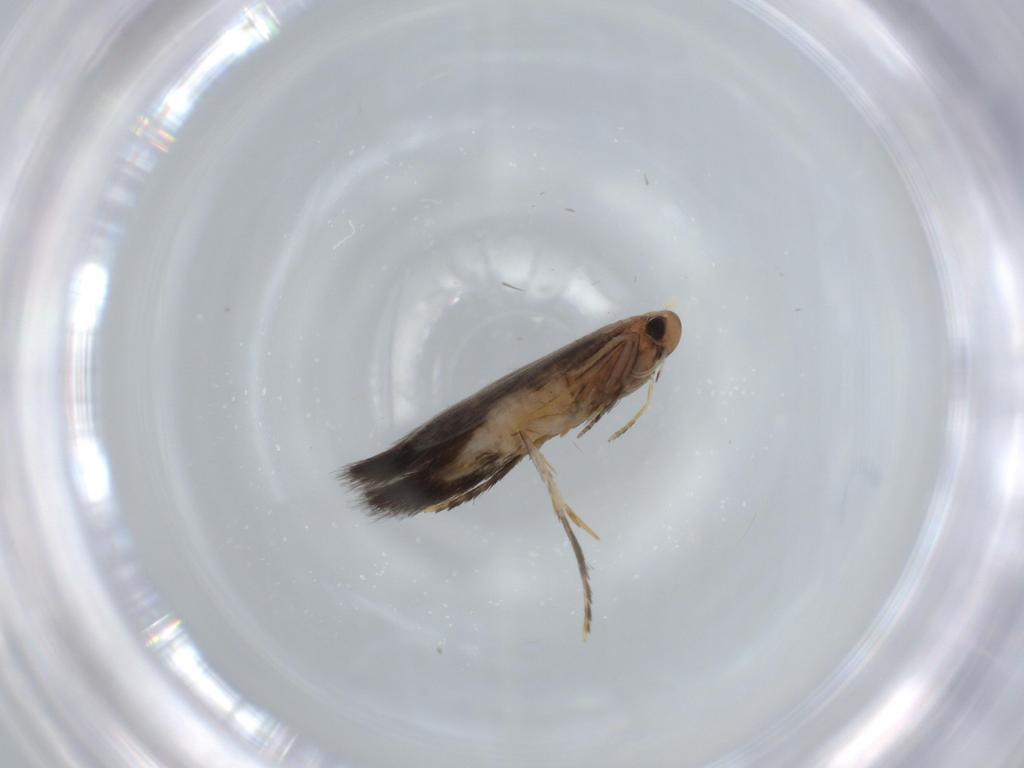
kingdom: Animalia
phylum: Arthropoda
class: Insecta
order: Lepidoptera
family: Heliozelidae
